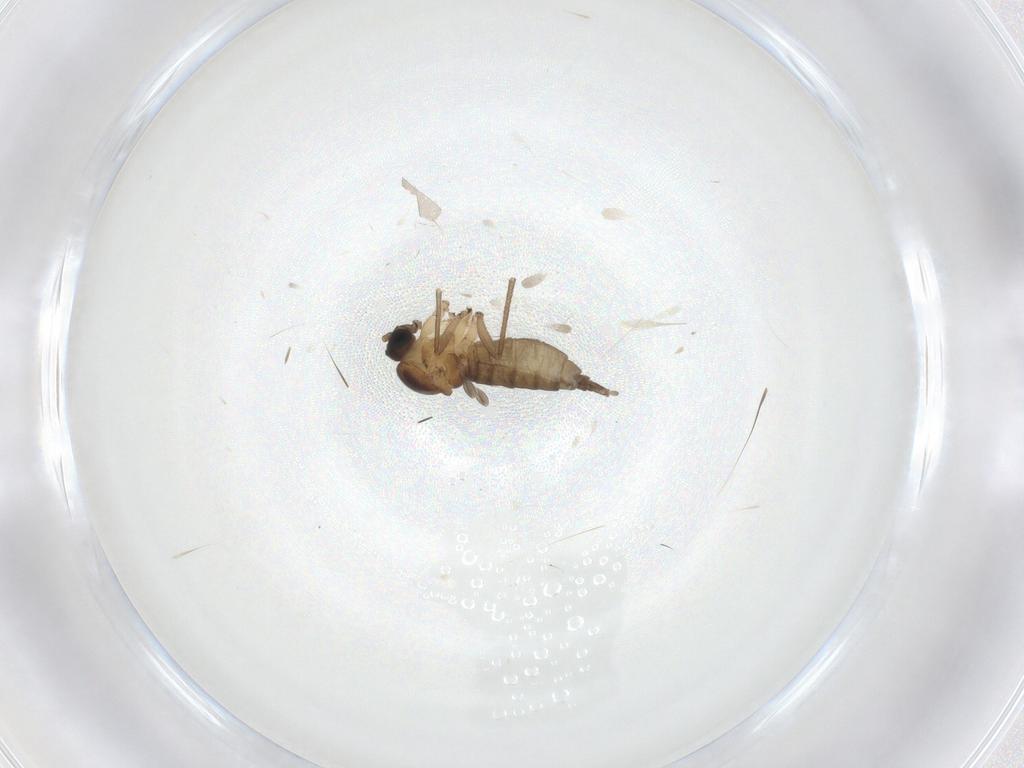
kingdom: Animalia
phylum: Arthropoda
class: Insecta
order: Diptera
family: Sciaridae
